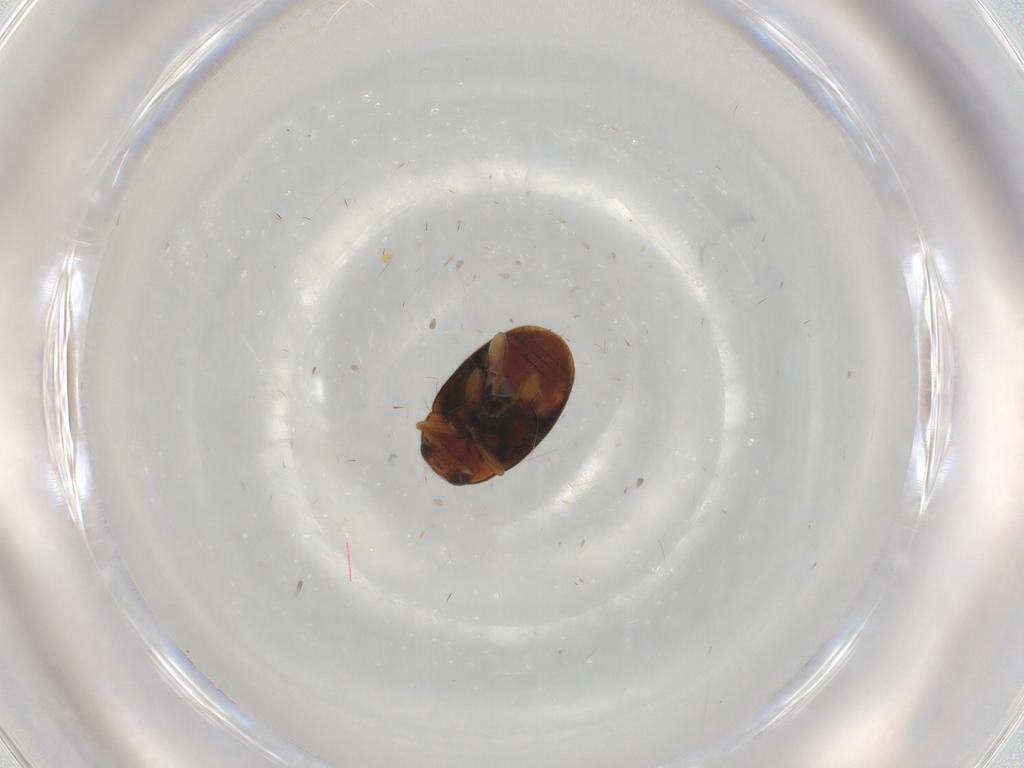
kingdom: Animalia
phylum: Arthropoda
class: Insecta
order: Coleoptera
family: Coccinellidae
